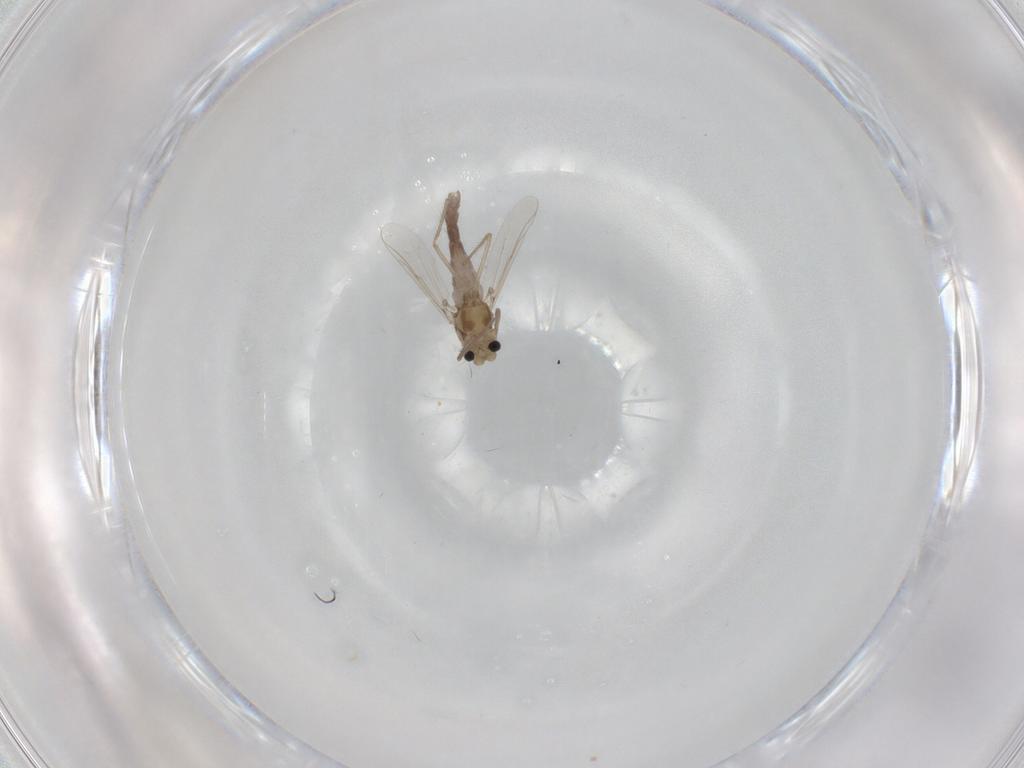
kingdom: Animalia
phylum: Arthropoda
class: Insecta
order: Diptera
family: Chironomidae
